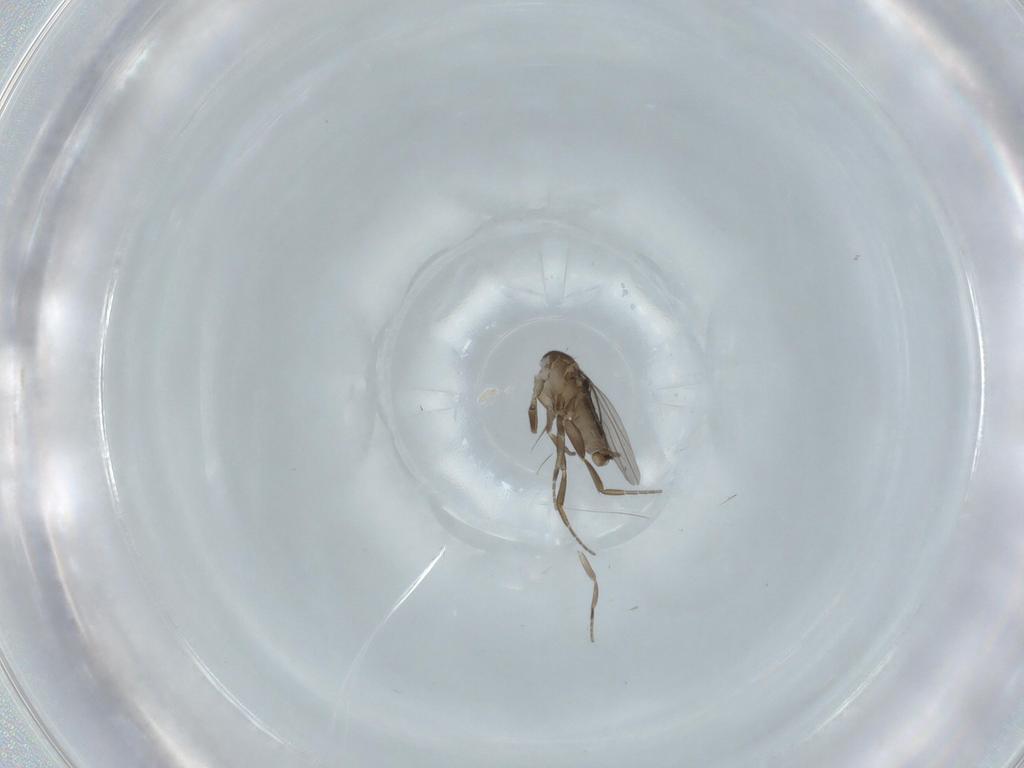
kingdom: Animalia
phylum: Arthropoda
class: Insecta
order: Diptera
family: Phoridae
